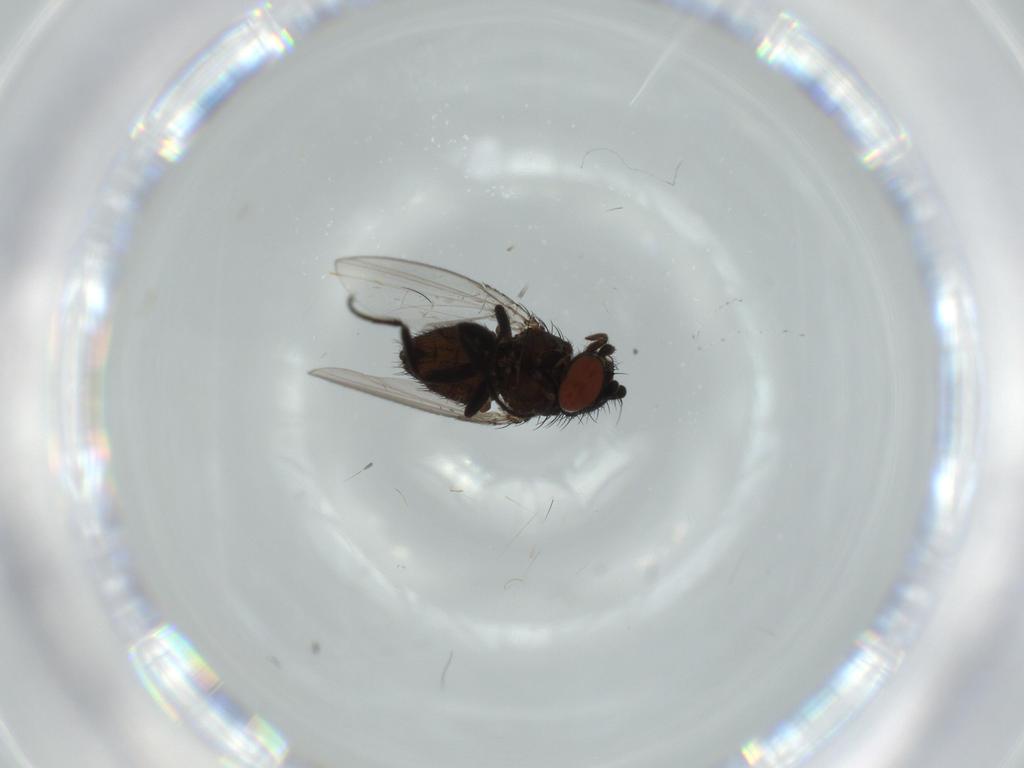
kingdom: Animalia
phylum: Arthropoda
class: Insecta
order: Diptera
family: Milichiidae
